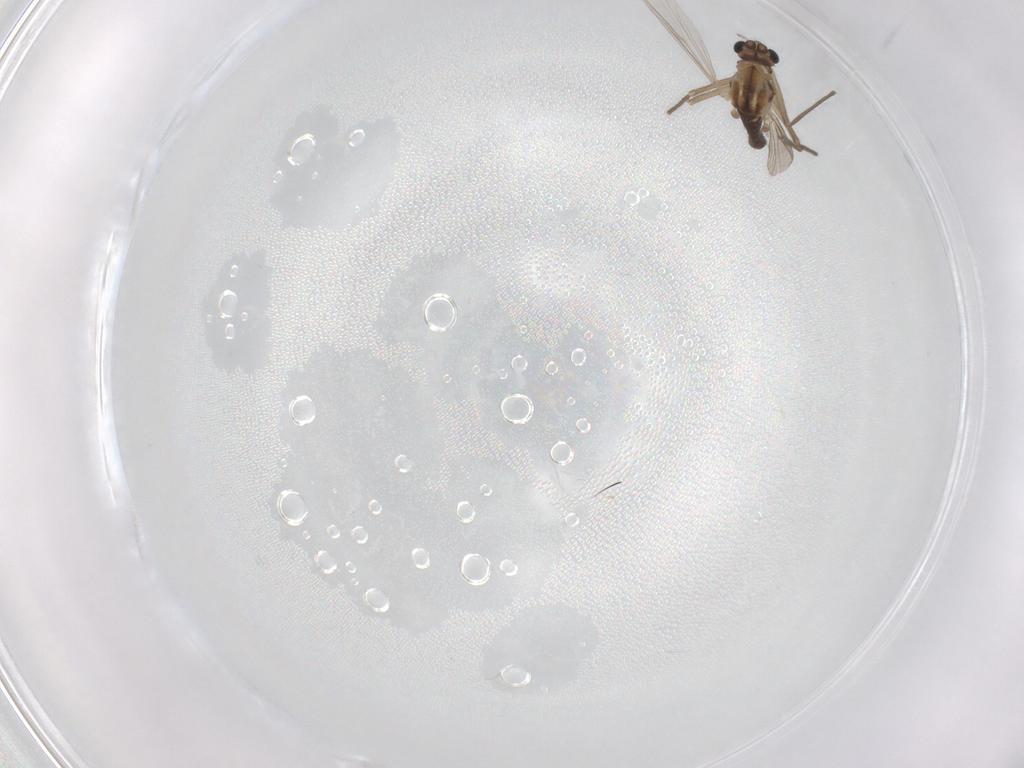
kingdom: Animalia
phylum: Arthropoda
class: Insecta
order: Diptera
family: Chironomidae
